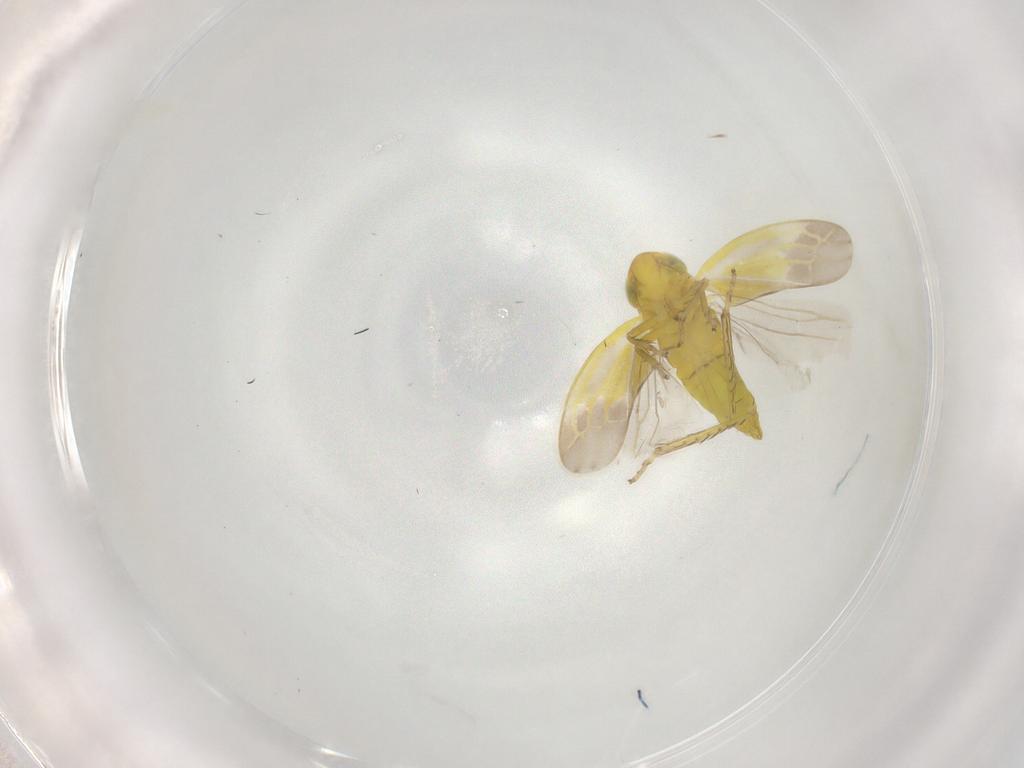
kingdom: Animalia
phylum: Arthropoda
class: Insecta
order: Hemiptera
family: Cicadellidae
